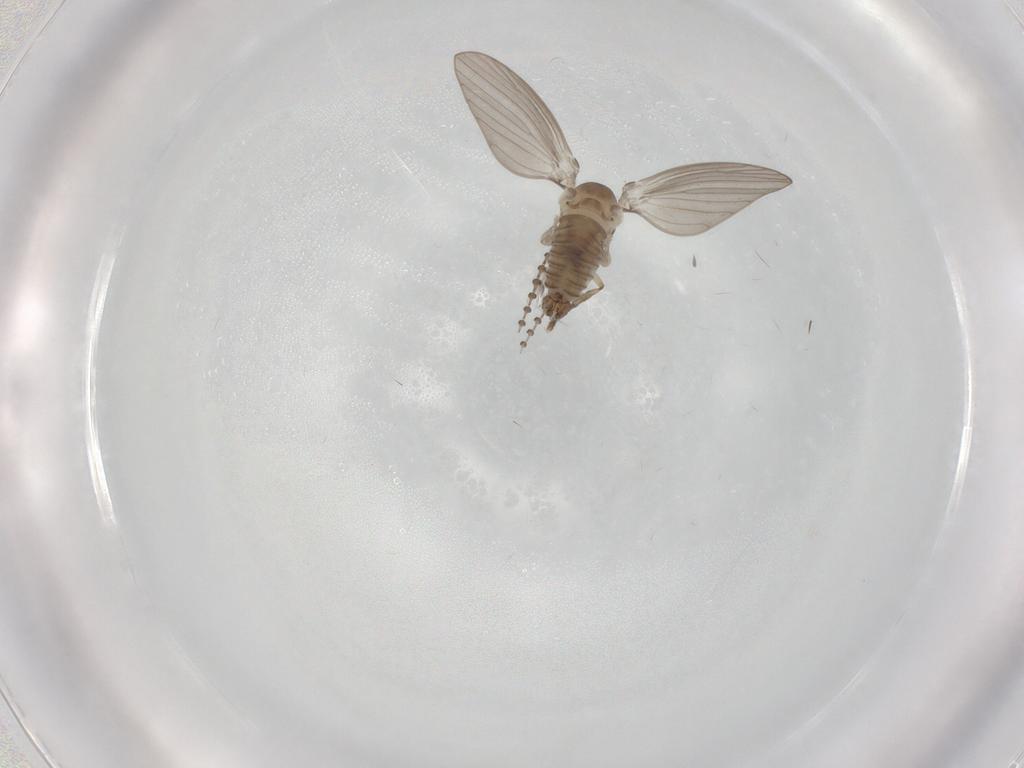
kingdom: Animalia
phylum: Arthropoda
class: Insecta
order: Diptera
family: Psychodidae
